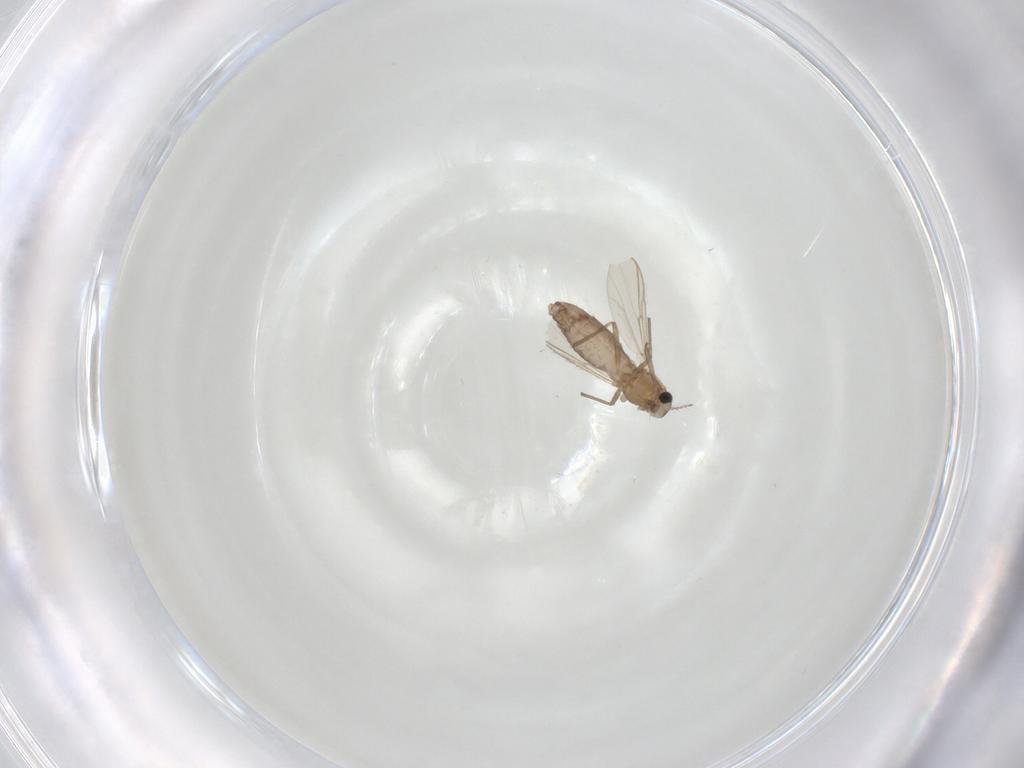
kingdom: Animalia
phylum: Arthropoda
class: Insecta
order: Diptera
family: Chironomidae
